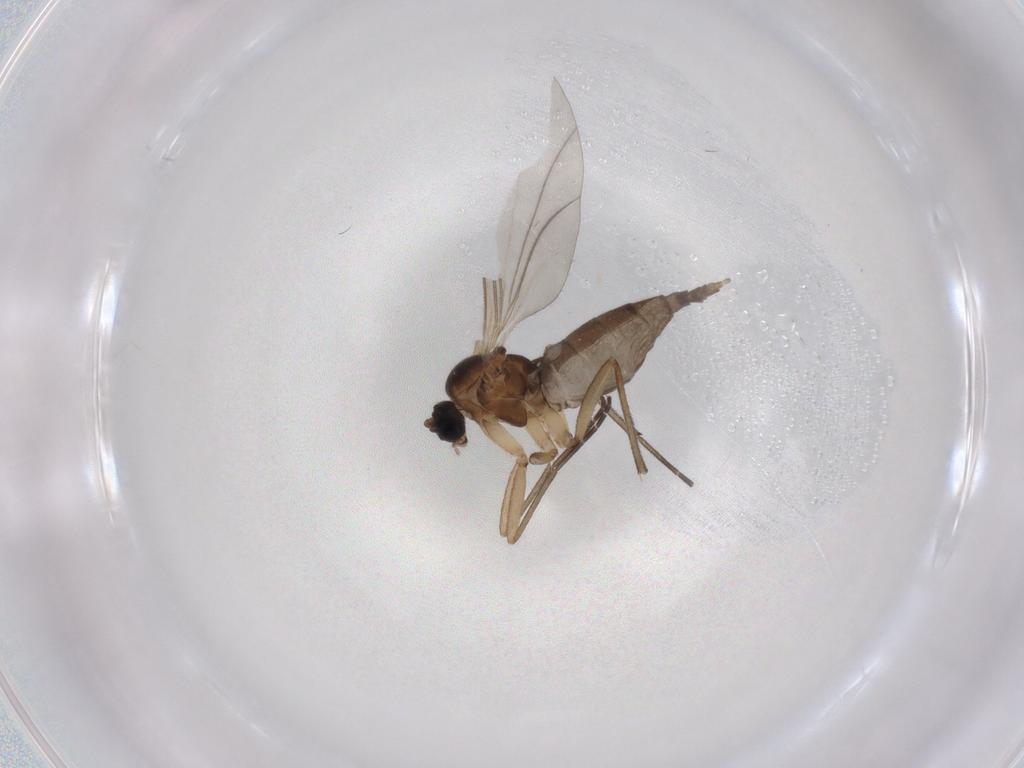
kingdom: Animalia
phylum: Arthropoda
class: Insecta
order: Diptera
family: Sciaridae
